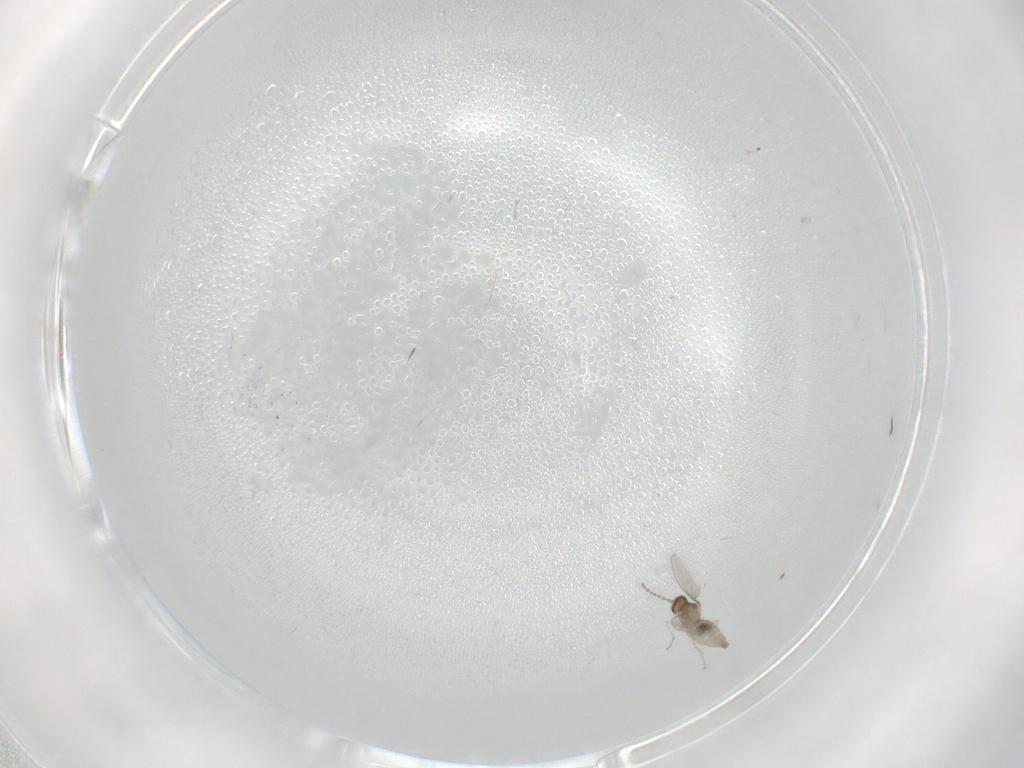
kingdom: Animalia
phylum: Arthropoda
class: Insecta
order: Diptera
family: Cecidomyiidae
